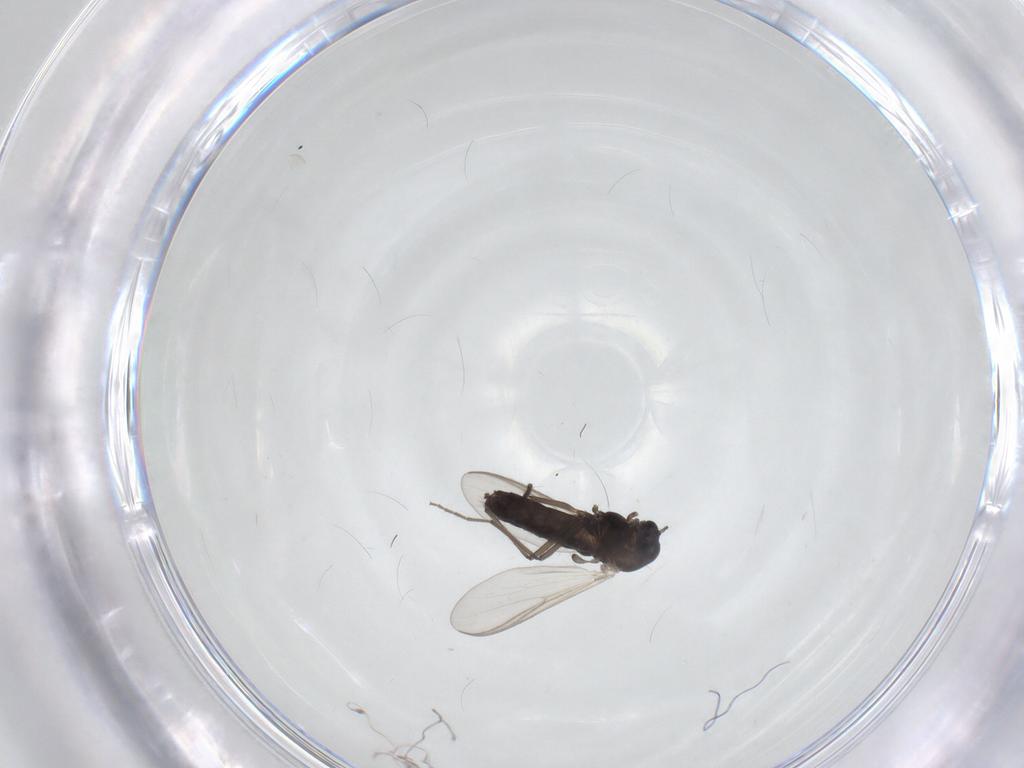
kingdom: Animalia
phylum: Arthropoda
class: Insecta
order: Diptera
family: Chironomidae
